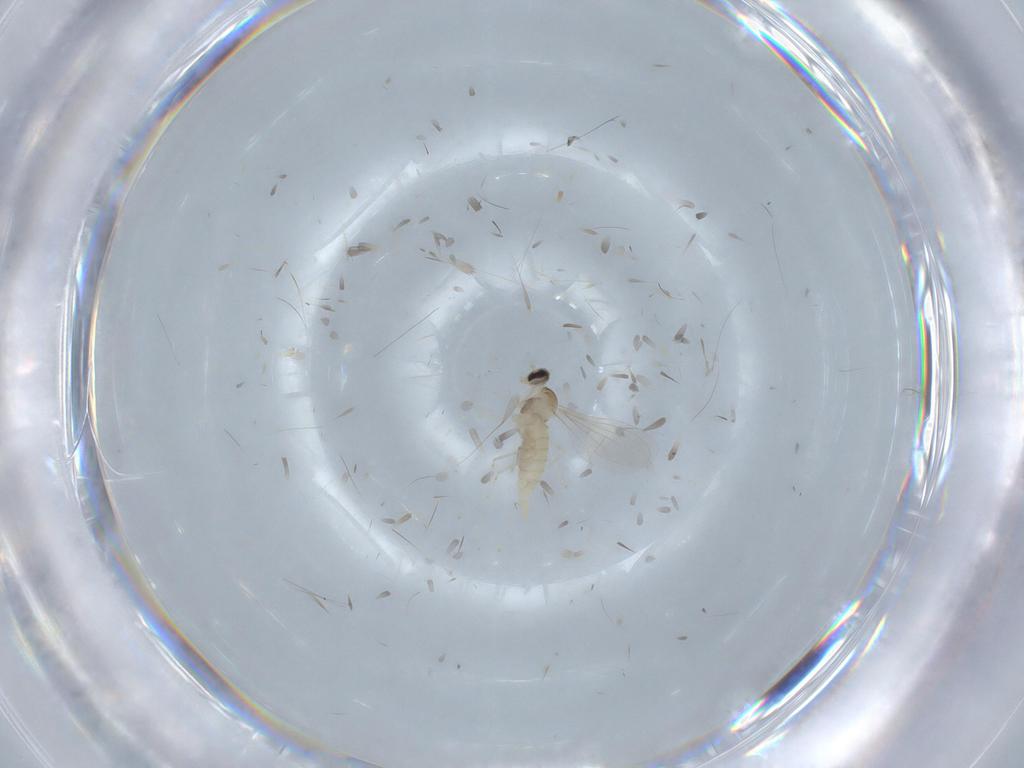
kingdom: Animalia
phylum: Arthropoda
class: Insecta
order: Diptera
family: Cecidomyiidae
